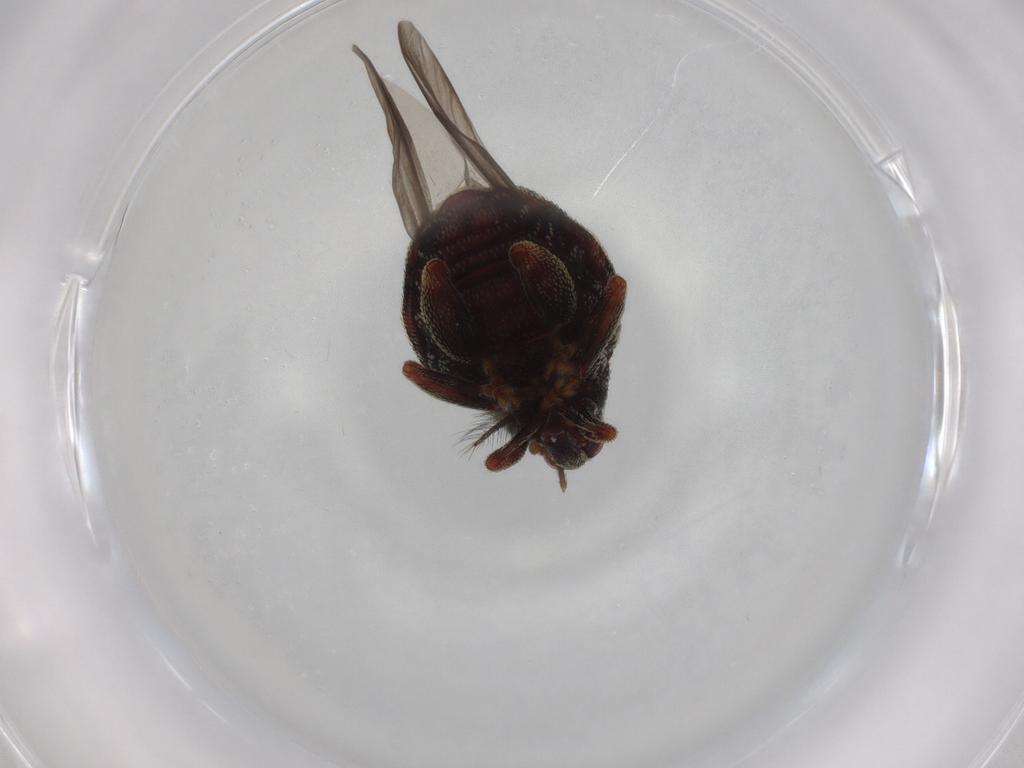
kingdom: Animalia
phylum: Arthropoda
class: Insecta
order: Coleoptera
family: Curculionidae
